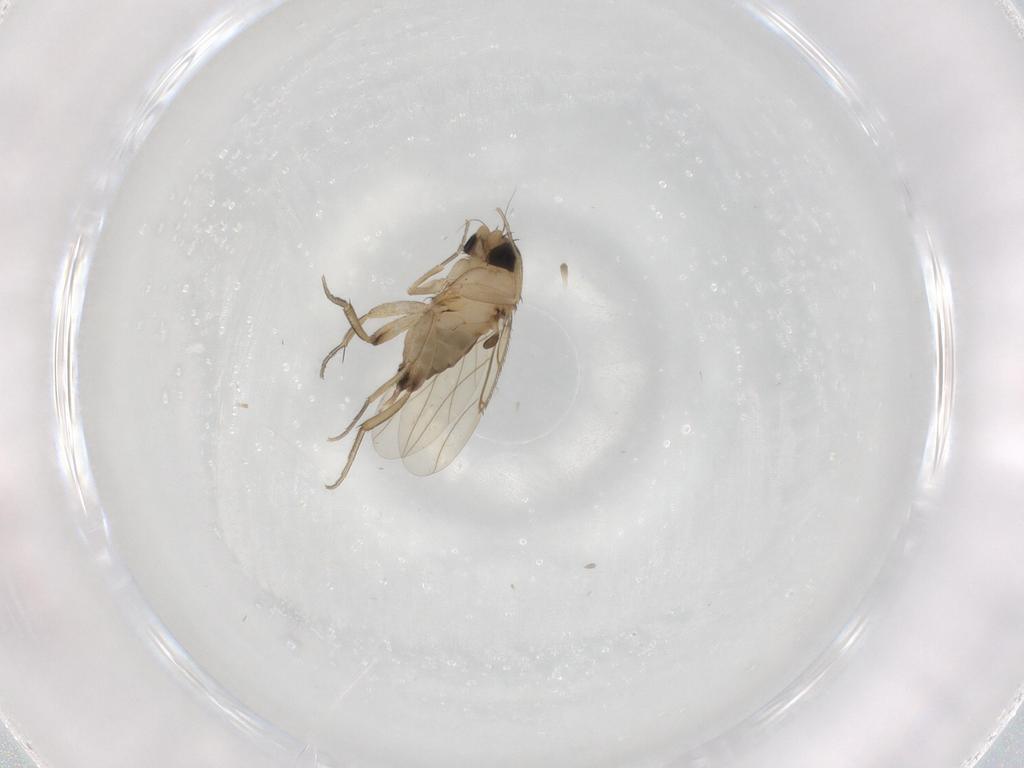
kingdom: Animalia
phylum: Arthropoda
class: Insecta
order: Diptera
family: Phoridae
